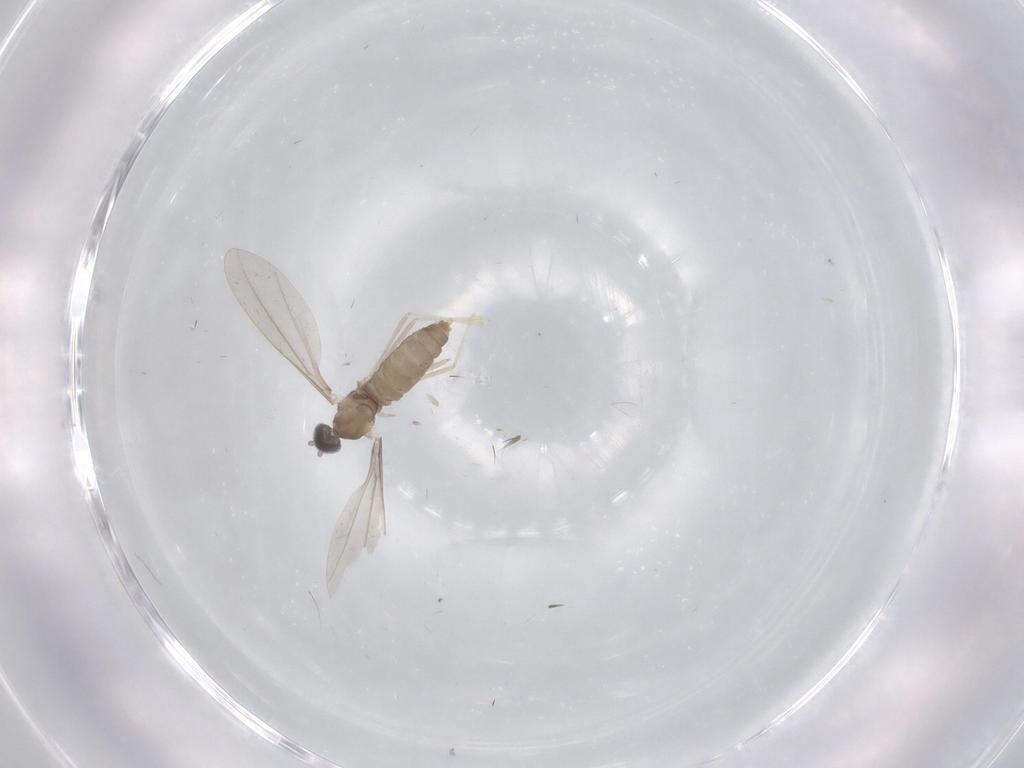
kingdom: Animalia
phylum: Arthropoda
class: Insecta
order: Diptera
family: Cecidomyiidae
